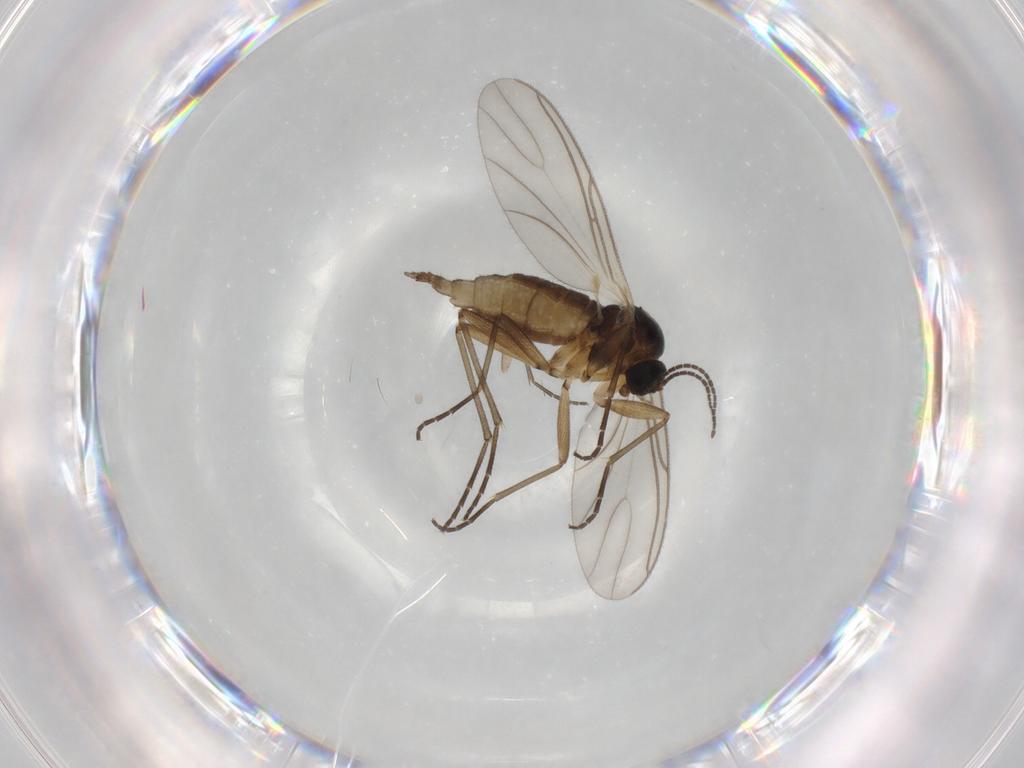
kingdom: Animalia
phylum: Arthropoda
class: Insecta
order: Diptera
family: Sciaridae
